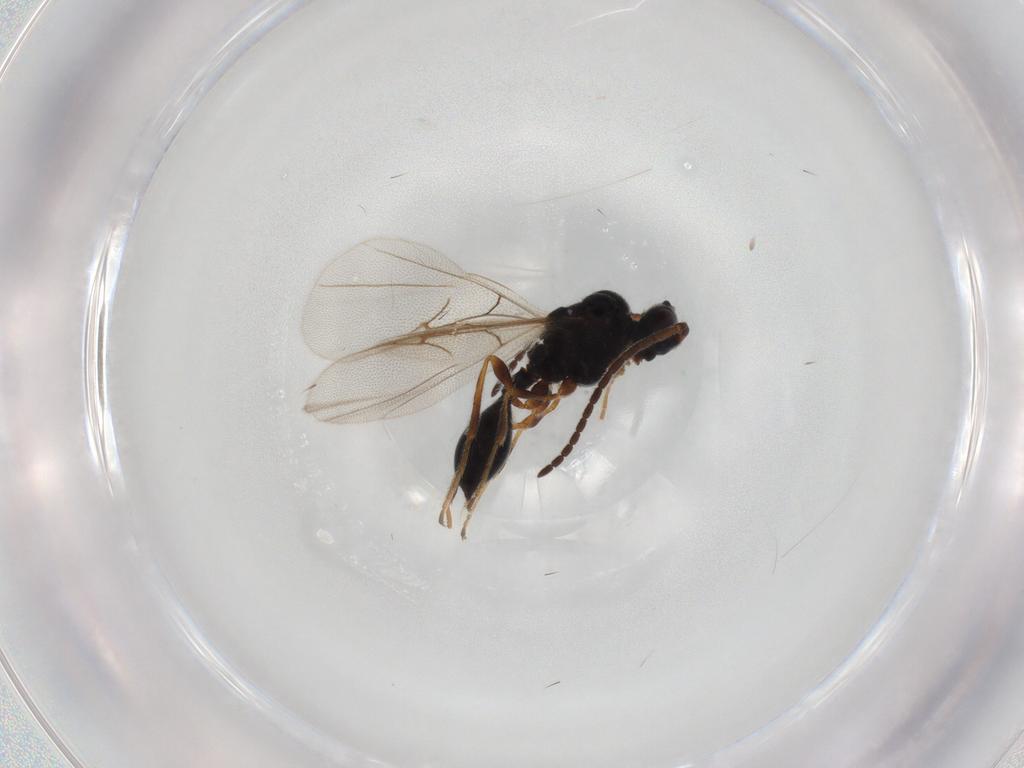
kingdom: Animalia
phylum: Arthropoda
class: Insecta
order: Hymenoptera
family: Diapriidae
